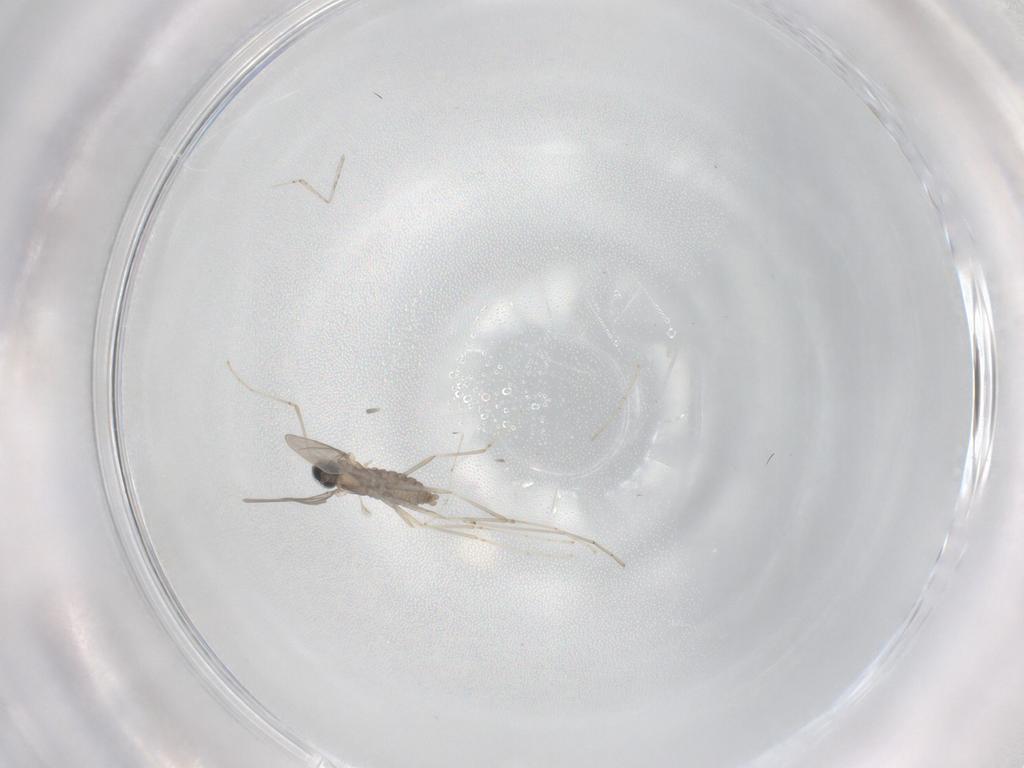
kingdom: Animalia
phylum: Arthropoda
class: Insecta
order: Diptera
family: Cecidomyiidae
